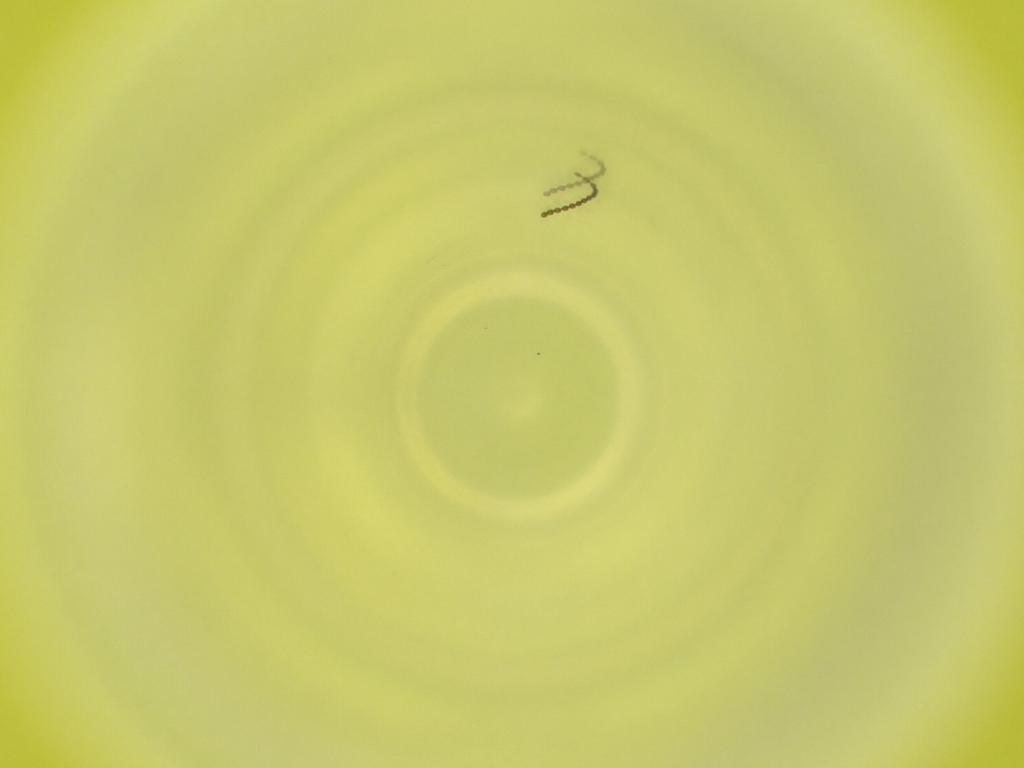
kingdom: Animalia
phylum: Arthropoda
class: Insecta
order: Diptera
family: Cecidomyiidae
